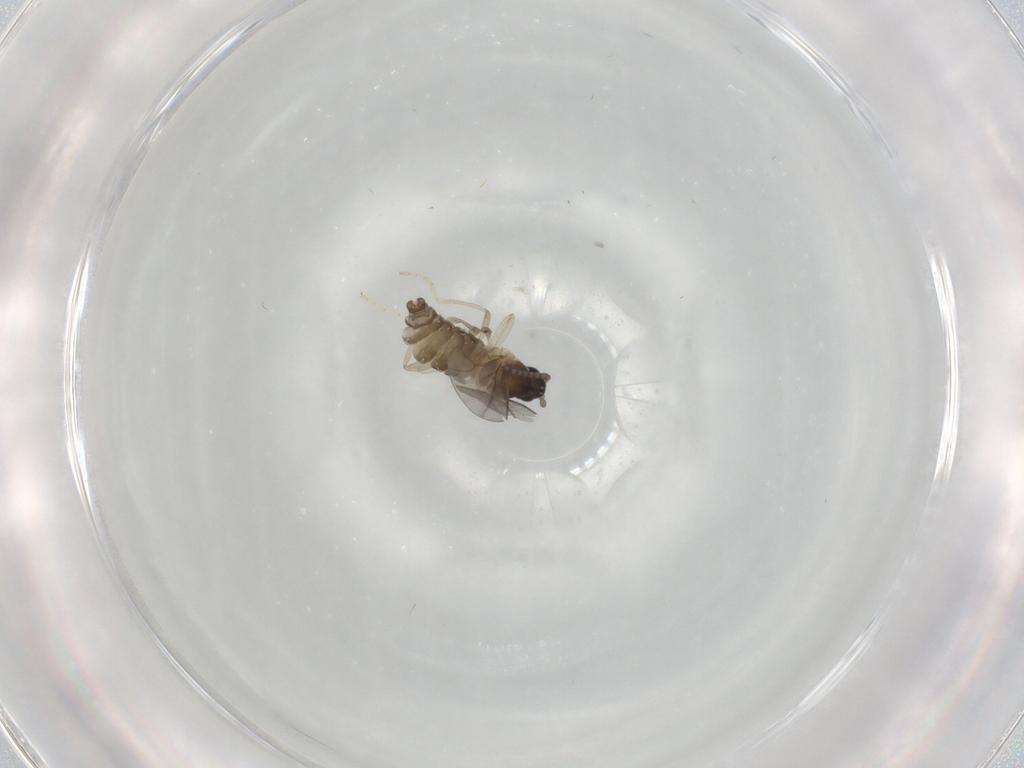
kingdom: Animalia
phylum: Arthropoda
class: Insecta
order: Diptera
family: Cecidomyiidae
